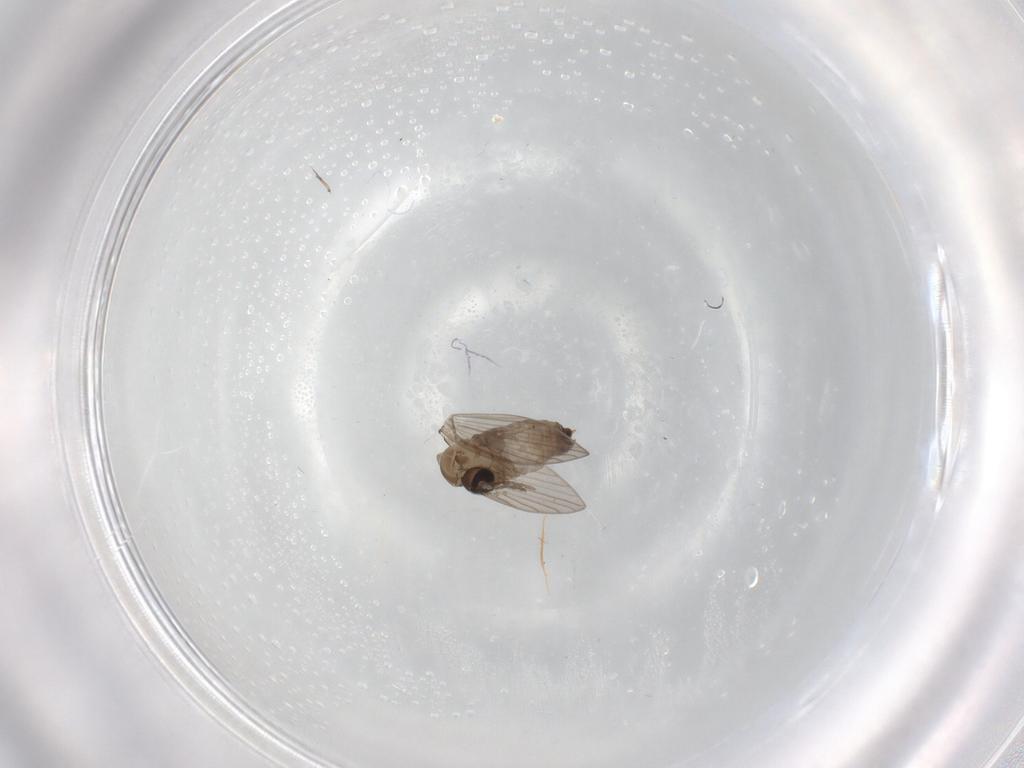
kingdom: Animalia
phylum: Arthropoda
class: Insecta
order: Diptera
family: Psychodidae
